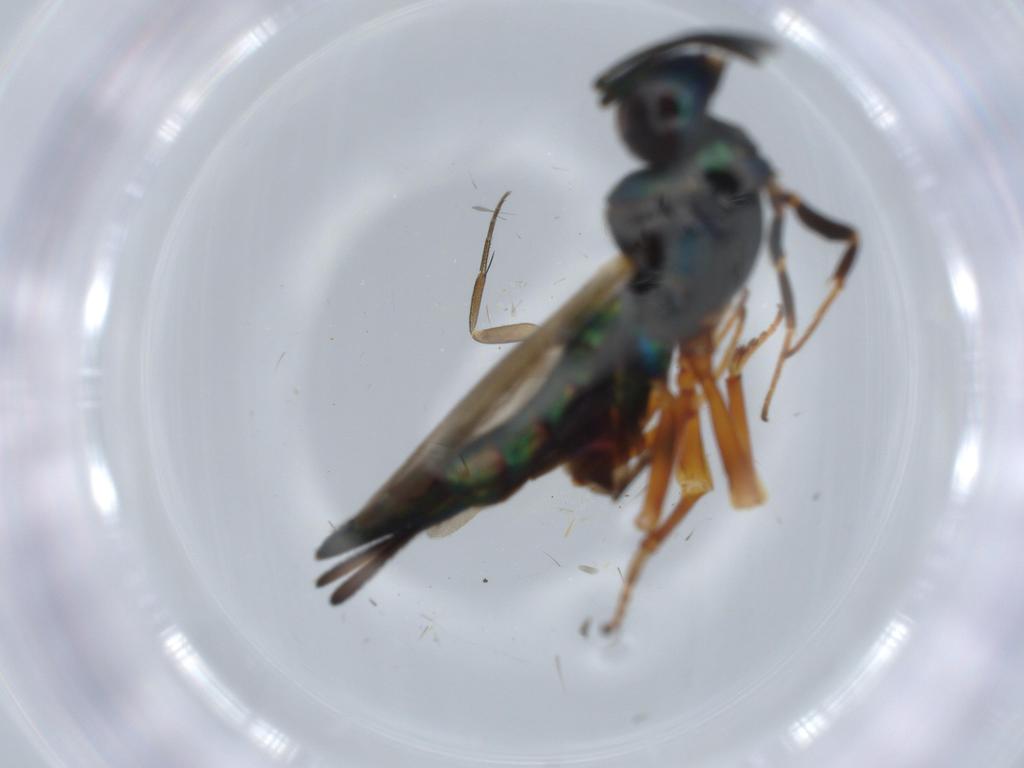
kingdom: Animalia
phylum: Arthropoda
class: Insecta
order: Hymenoptera
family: Eupelmidae
